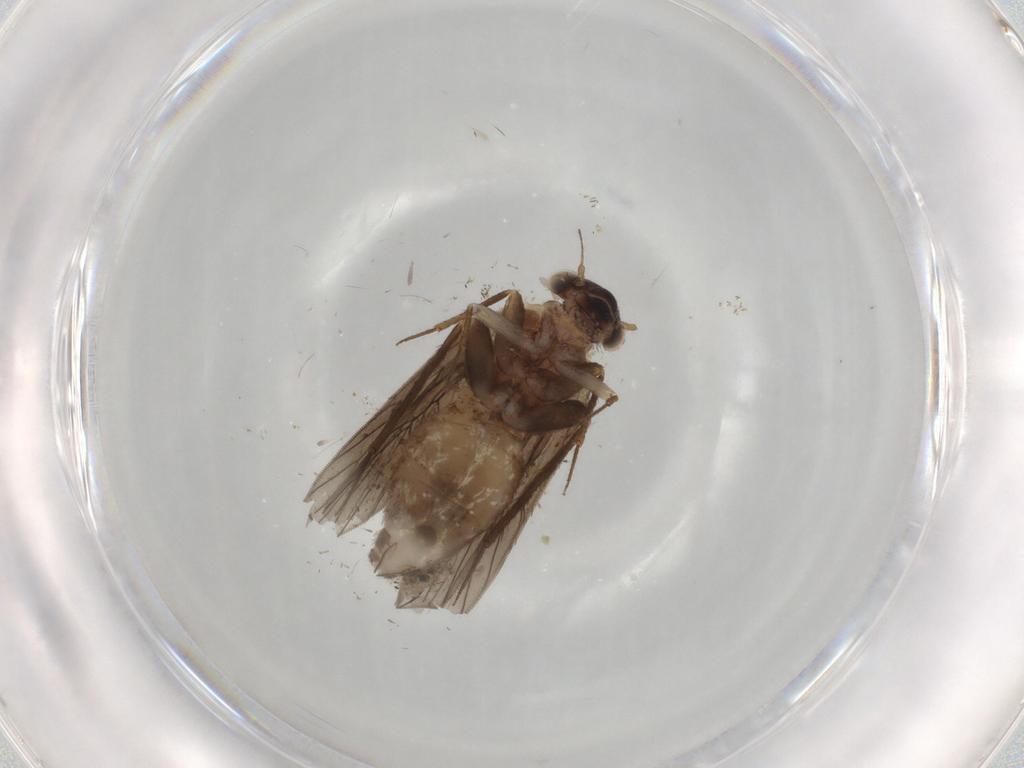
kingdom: Animalia
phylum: Arthropoda
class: Insecta
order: Psocodea
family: Lepidopsocidae
